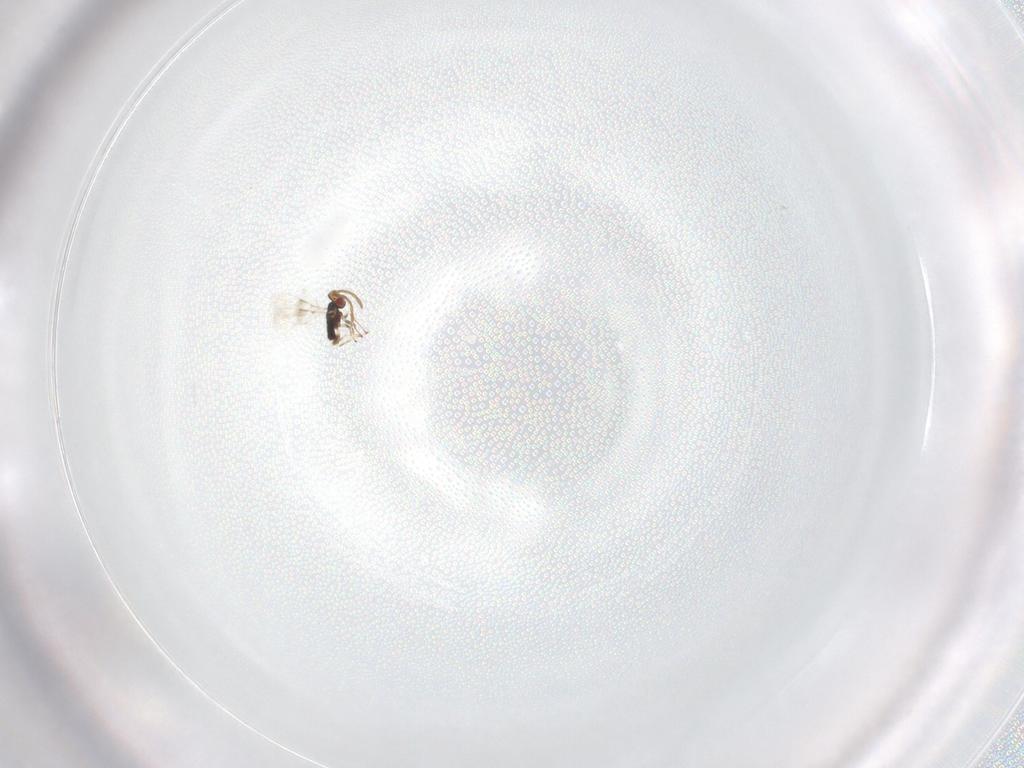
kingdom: Animalia
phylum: Arthropoda
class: Insecta
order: Hymenoptera
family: Azotidae
